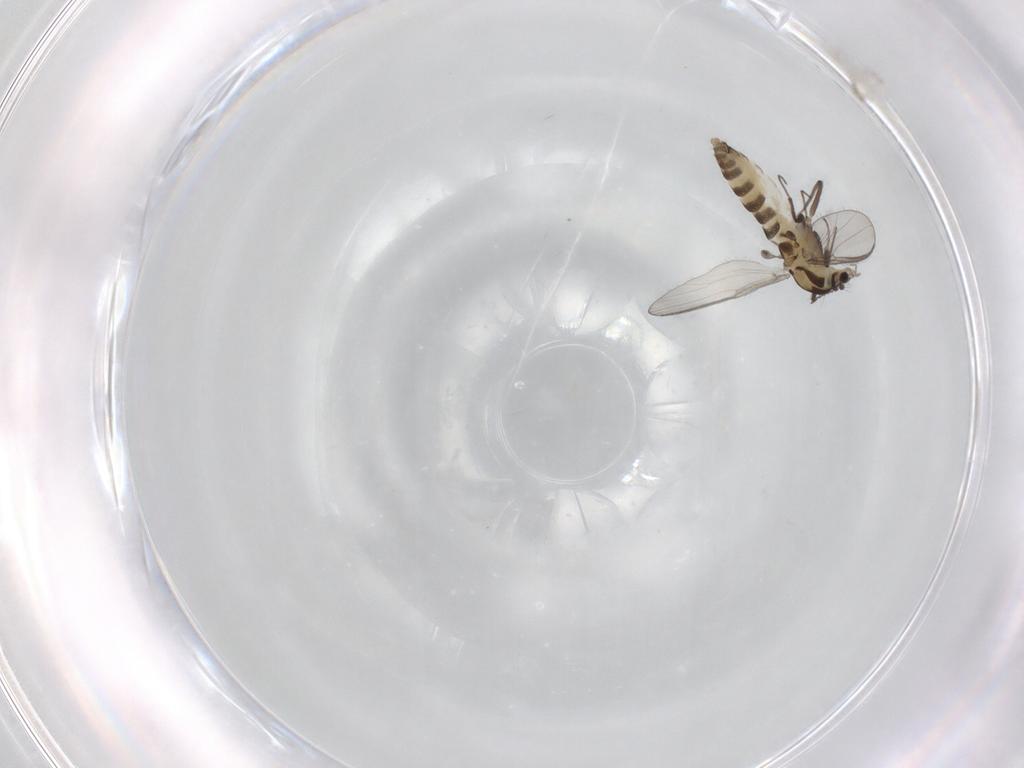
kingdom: Animalia
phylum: Arthropoda
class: Insecta
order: Diptera
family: Chironomidae
